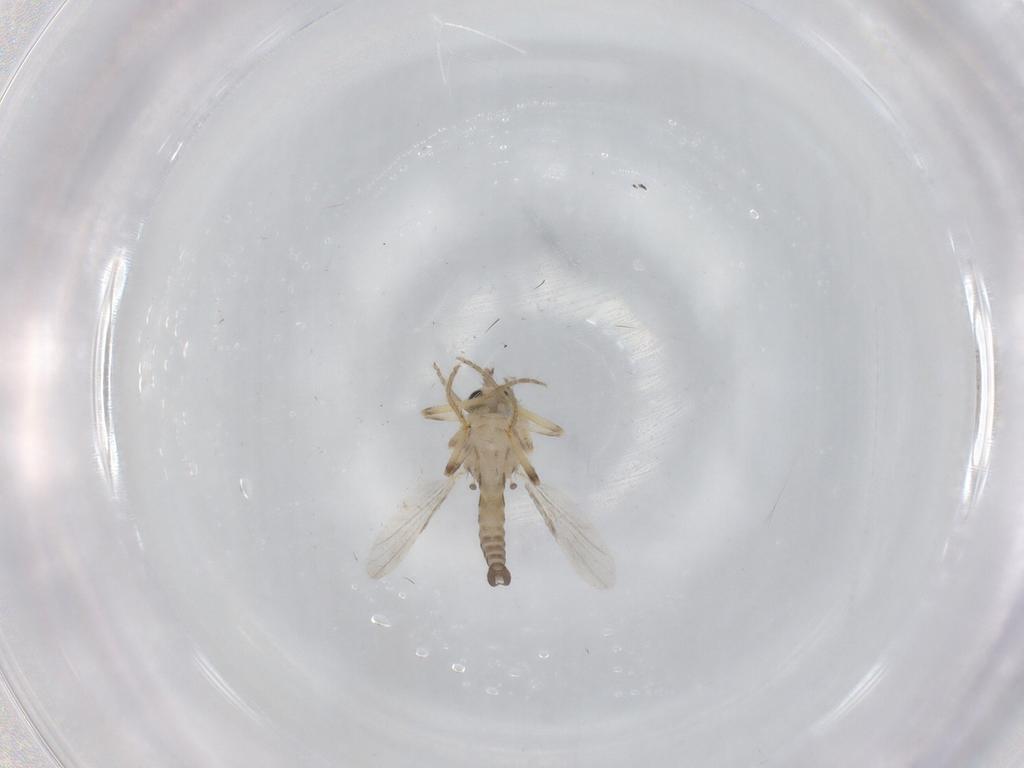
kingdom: Animalia
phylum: Arthropoda
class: Insecta
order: Diptera
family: Ceratopogonidae
